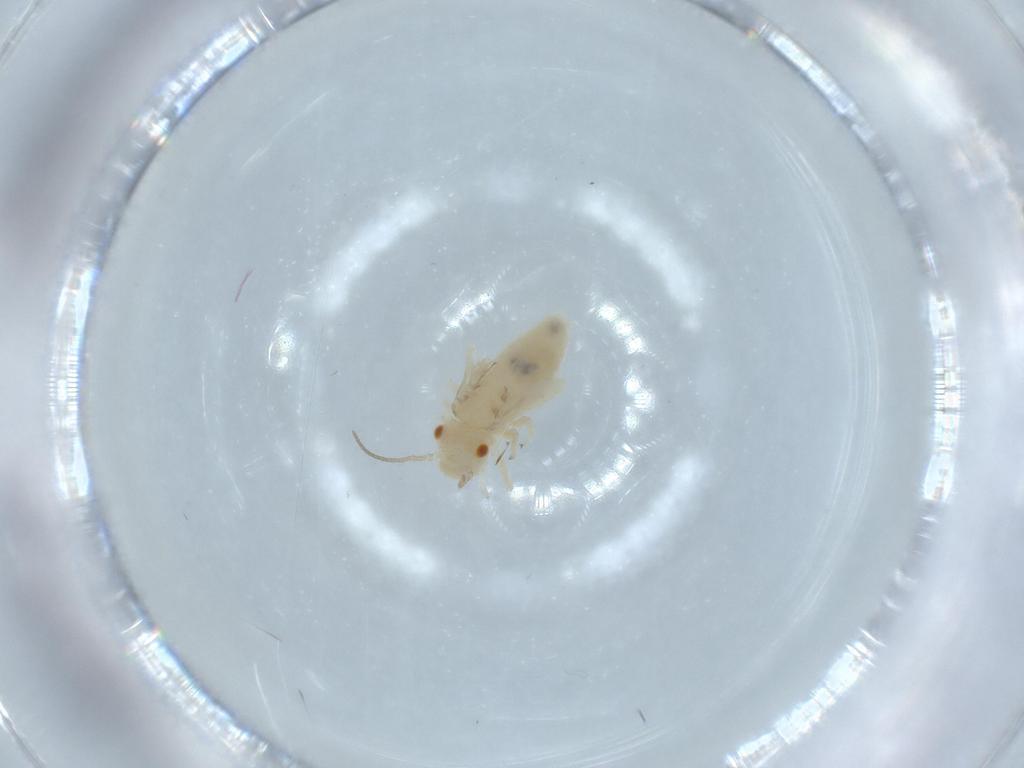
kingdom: Animalia
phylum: Arthropoda
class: Insecta
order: Psocodea
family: Caeciliusidae
